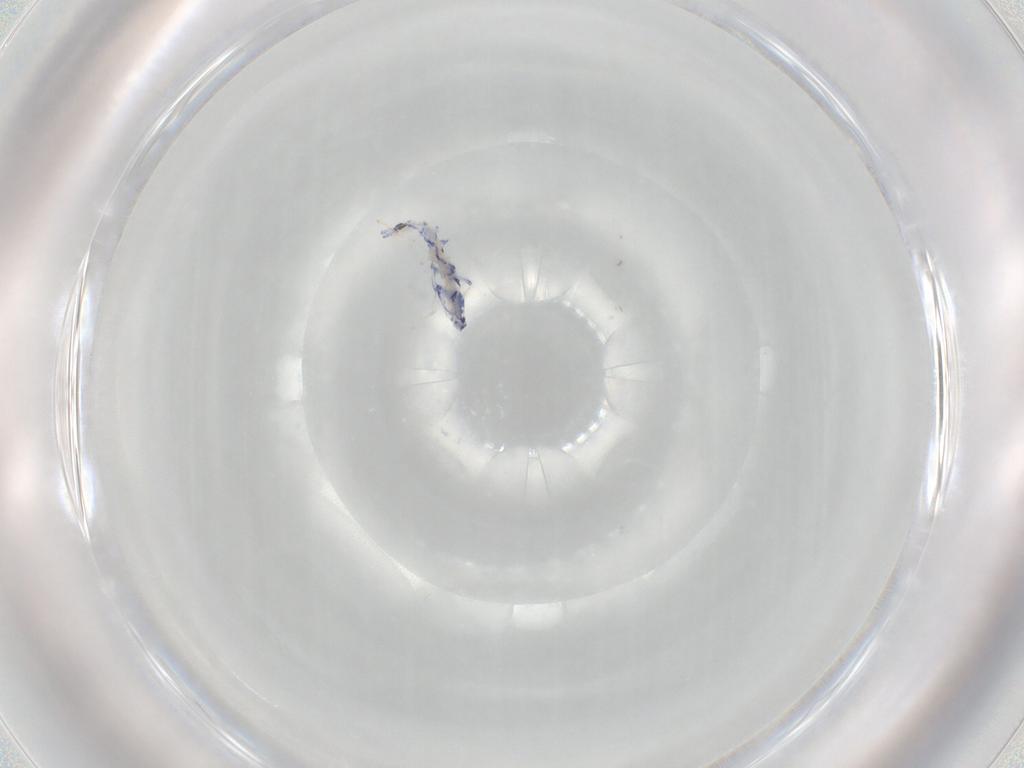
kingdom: Animalia
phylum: Arthropoda
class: Collembola
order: Entomobryomorpha
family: Entomobryidae
